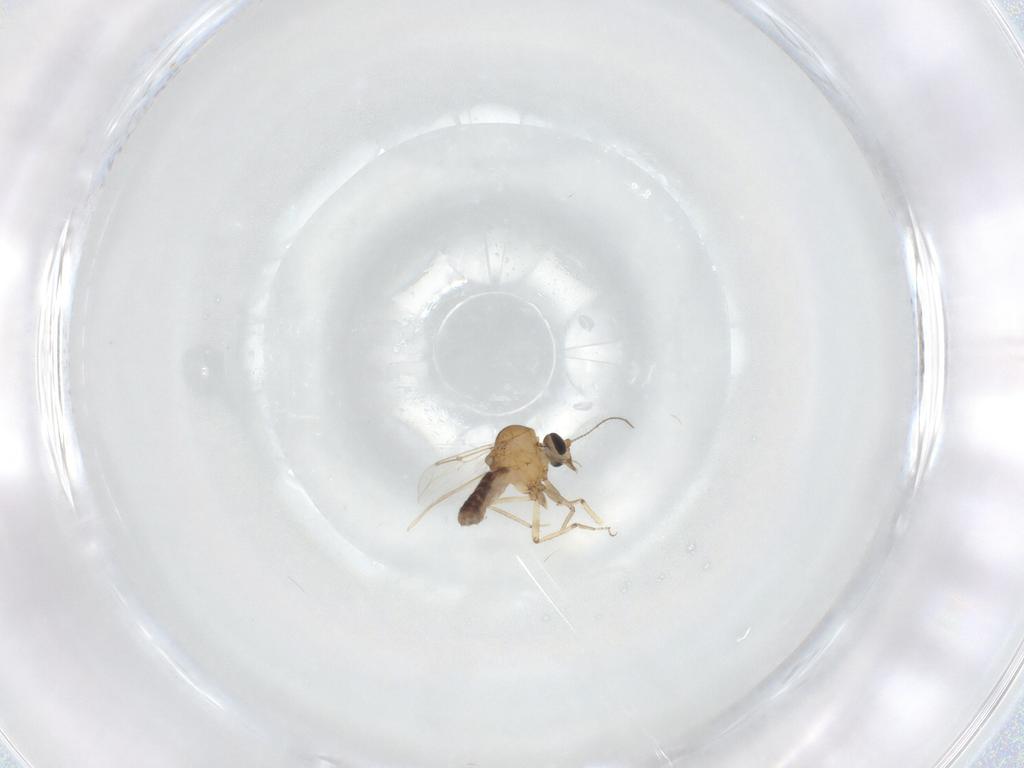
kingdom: Animalia
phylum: Arthropoda
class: Insecta
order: Diptera
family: Ceratopogonidae
